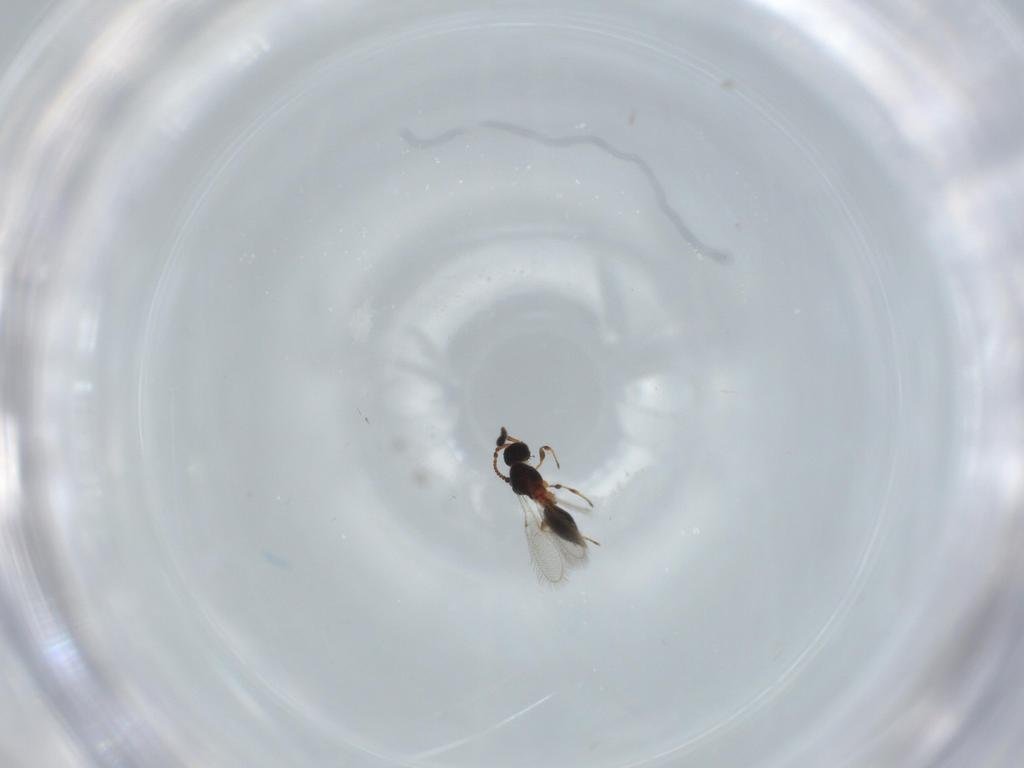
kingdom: Animalia
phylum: Arthropoda
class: Insecta
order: Hymenoptera
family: Diapriidae
